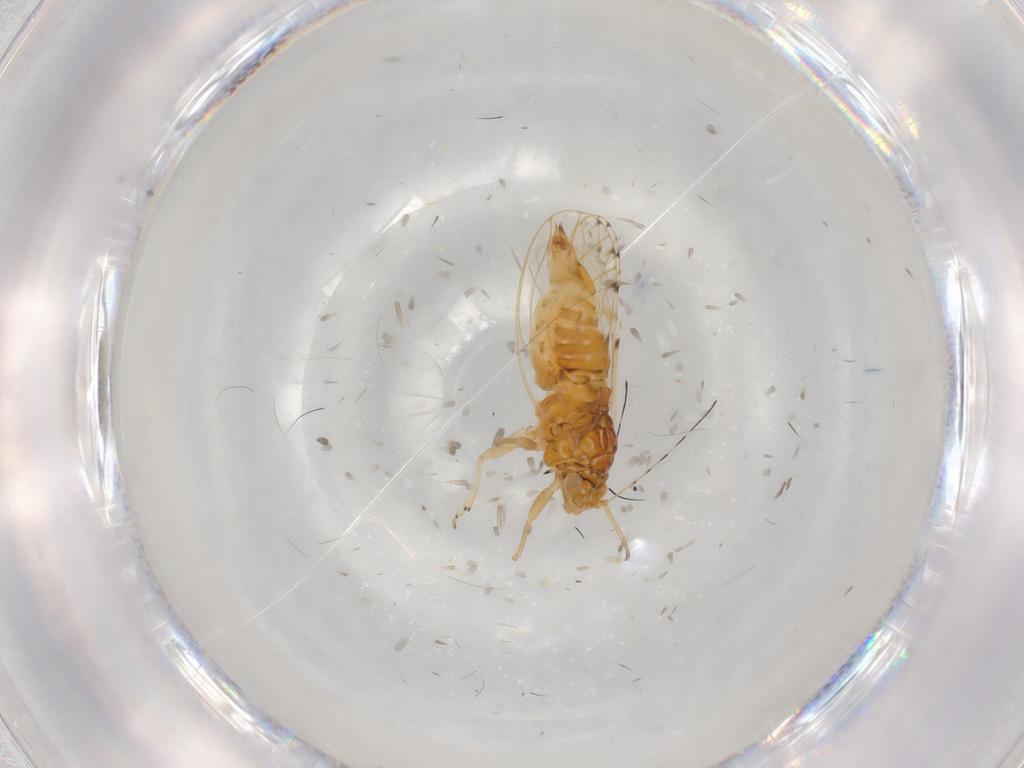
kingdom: Animalia
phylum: Arthropoda
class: Insecta
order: Hemiptera
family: Psylloidea_incertae_sedis
